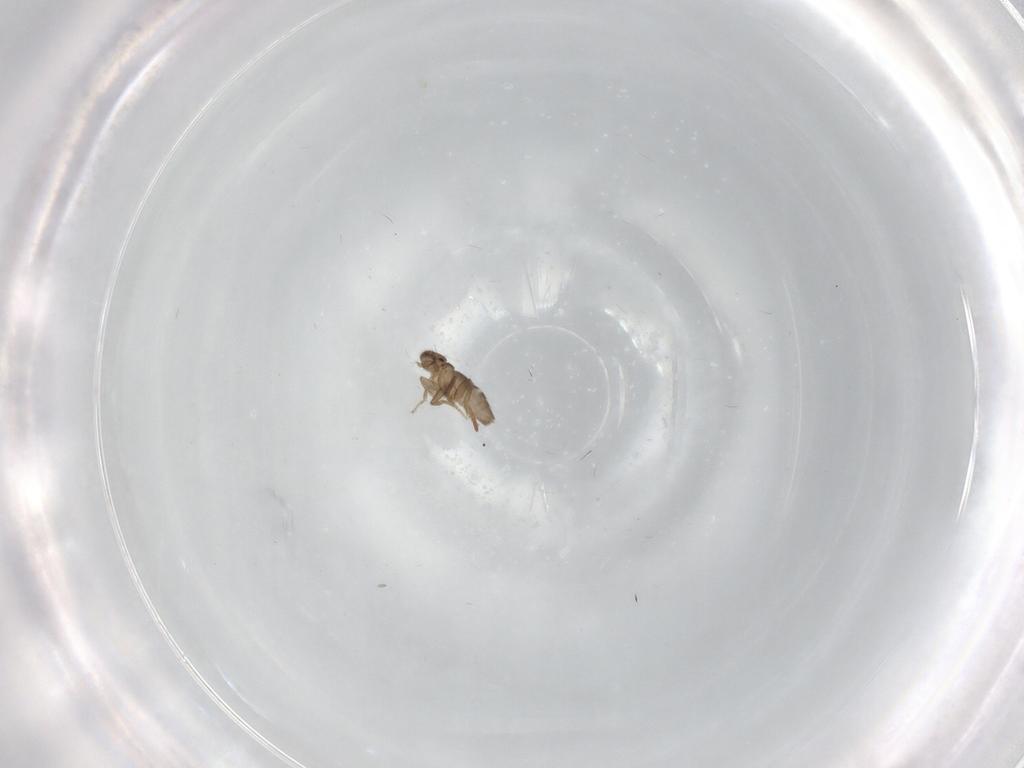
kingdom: Animalia
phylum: Arthropoda
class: Insecta
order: Diptera
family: Sphaeroceridae
